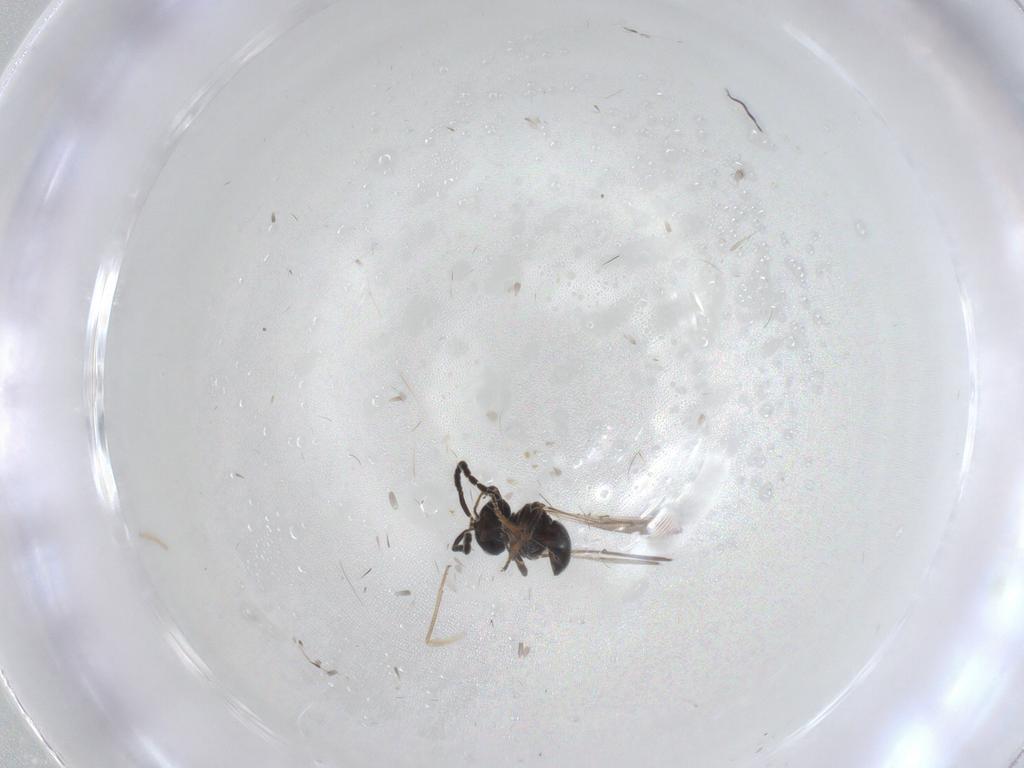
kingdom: Animalia
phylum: Arthropoda
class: Insecta
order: Hymenoptera
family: Scelionidae
